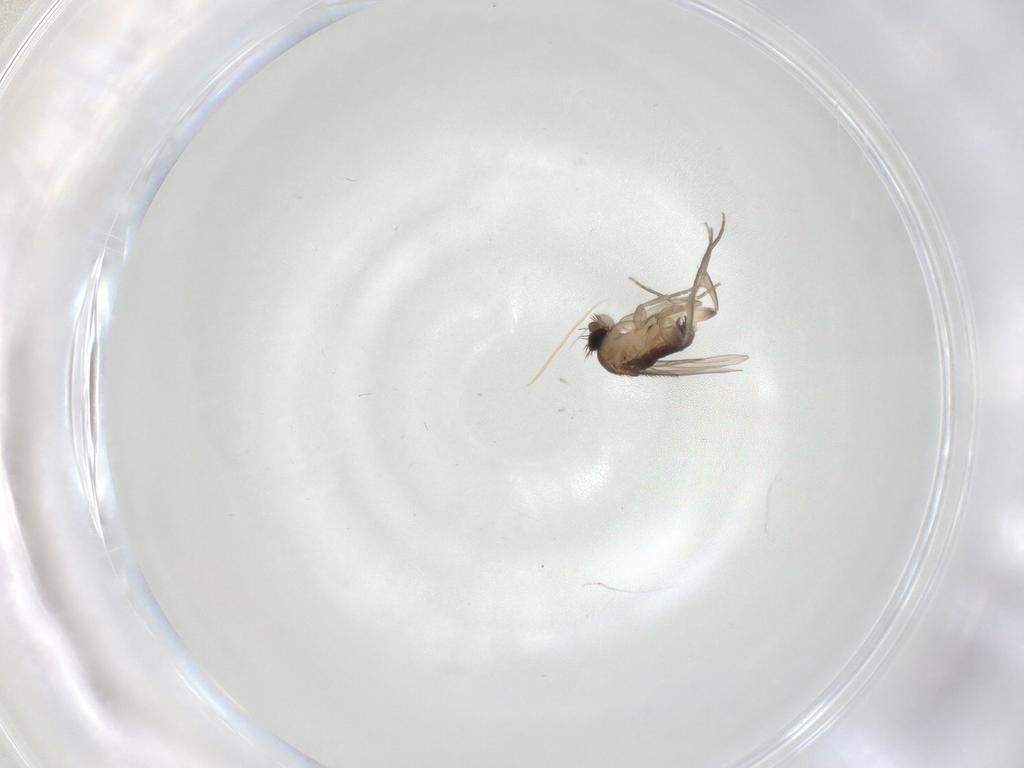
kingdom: Animalia
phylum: Arthropoda
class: Insecta
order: Diptera
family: Phoridae
